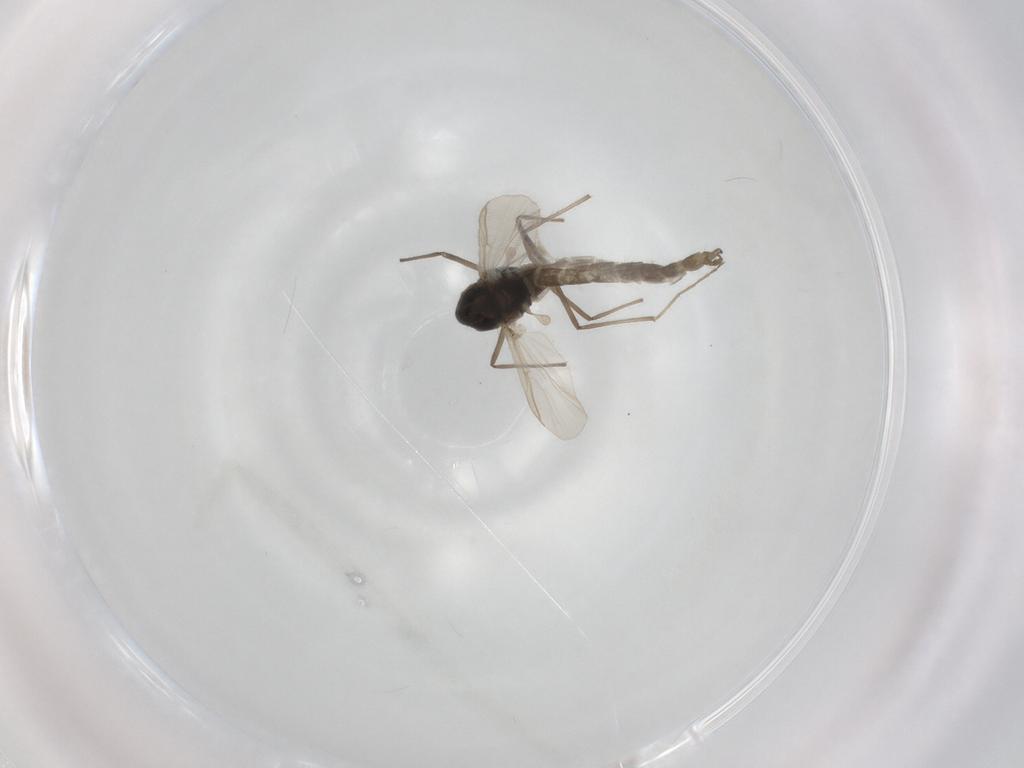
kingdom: Animalia
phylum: Arthropoda
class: Insecta
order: Diptera
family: Chironomidae
